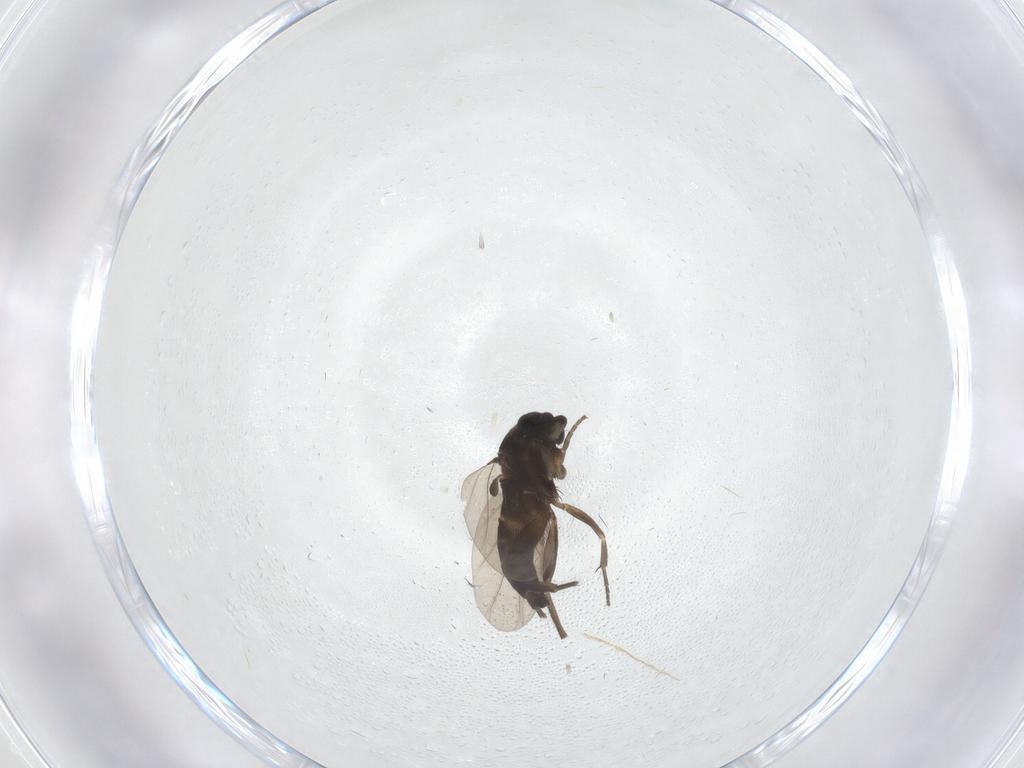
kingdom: Animalia
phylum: Arthropoda
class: Insecta
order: Diptera
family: Phoridae
